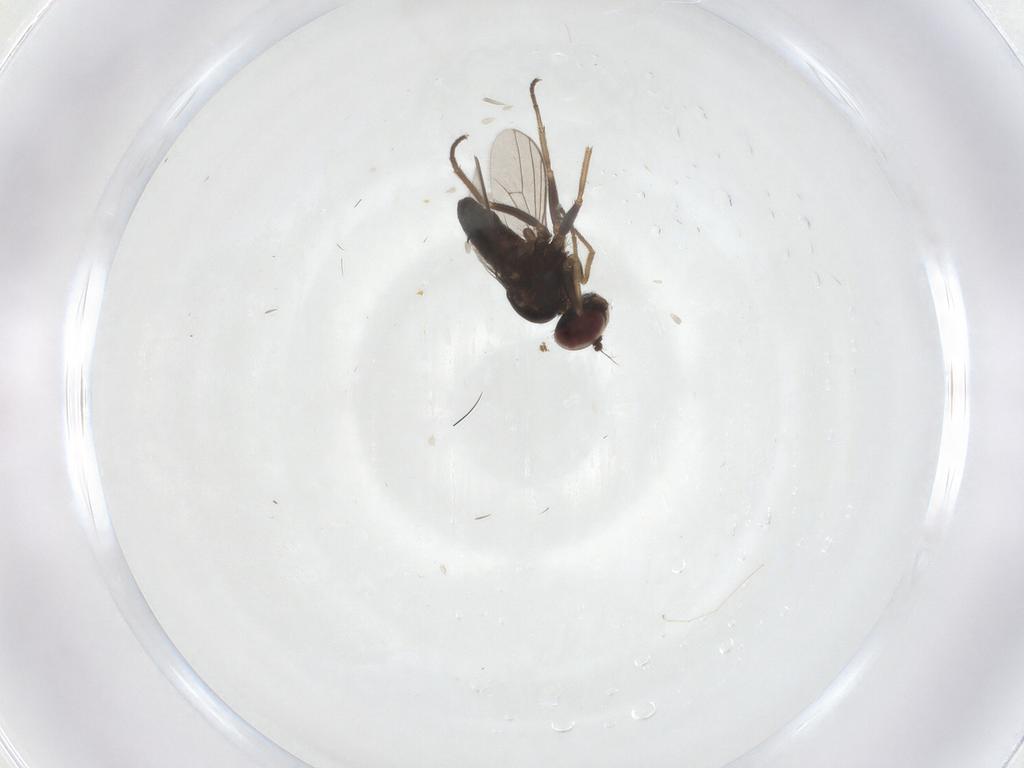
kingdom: Animalia
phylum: Arthropoda
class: Insecta
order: Diptera
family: Dolichopodidae
